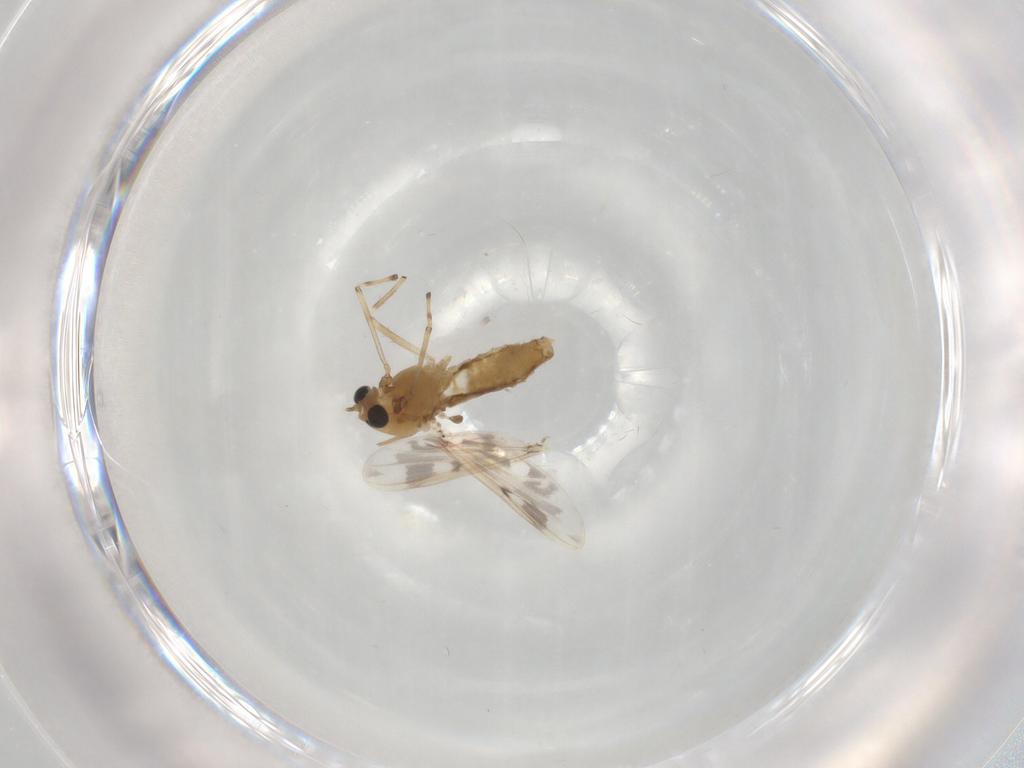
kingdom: Animalia
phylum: Arthropoda
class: Insecta
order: Diptera
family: Chironomidae
